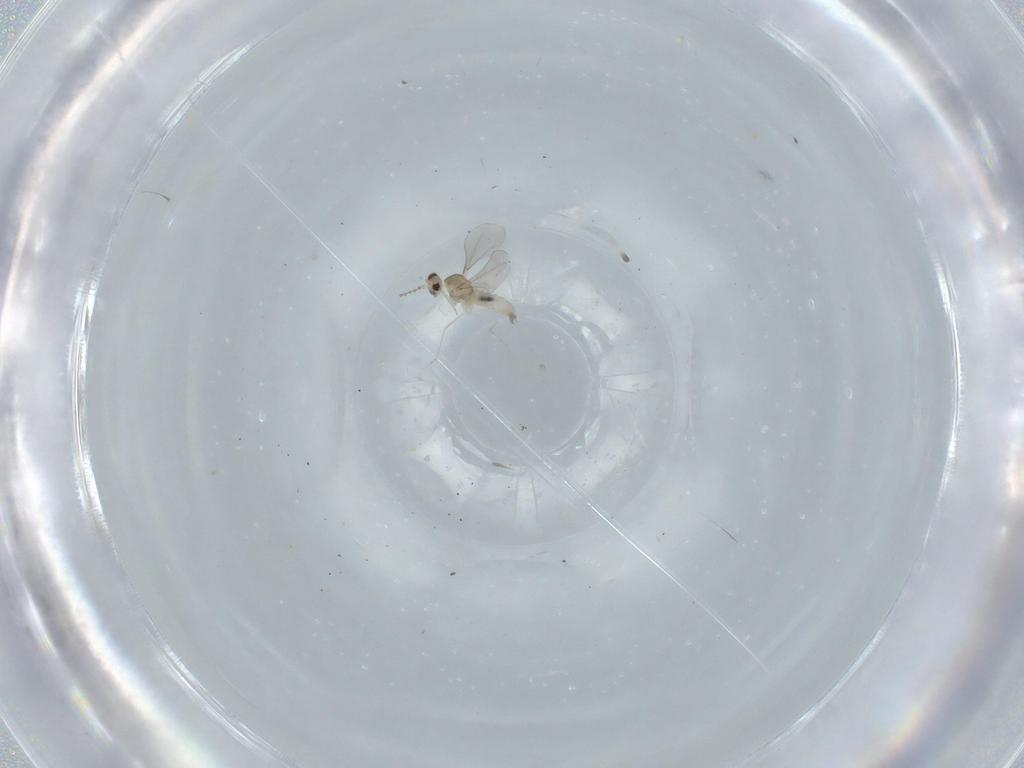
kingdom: Animalia
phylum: Arthropoda
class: Insecta
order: Diptera
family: Cecidomyiidae
